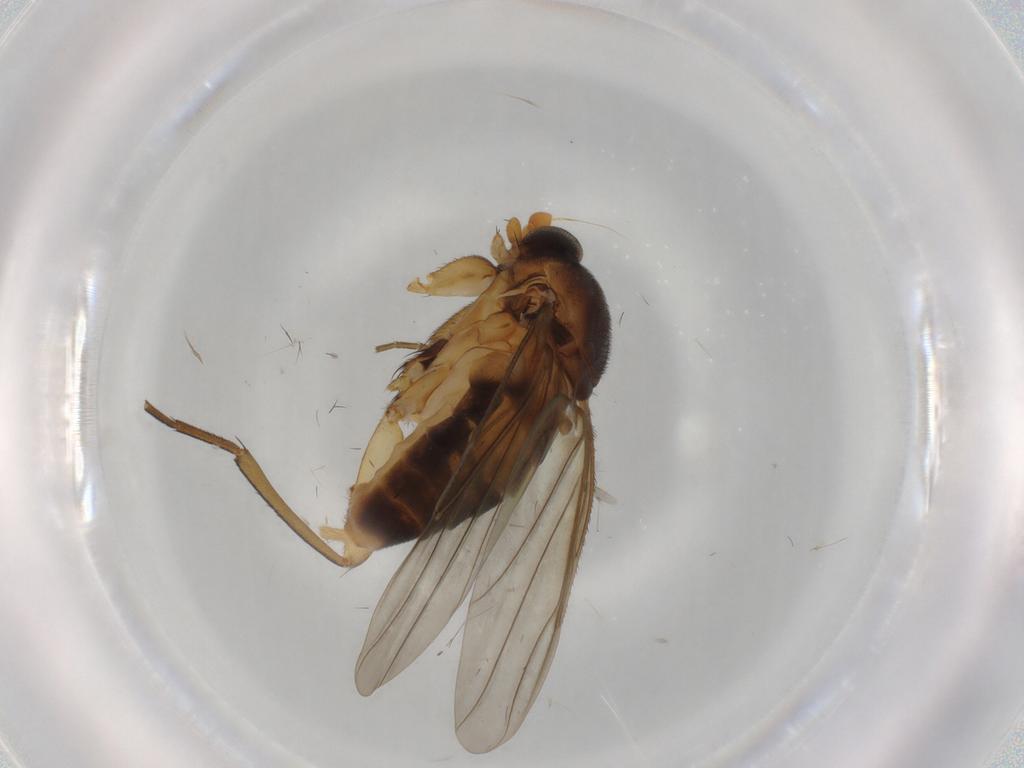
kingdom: Animalia
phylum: Arthropoda
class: Insecta
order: Diptera
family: Phoridae
